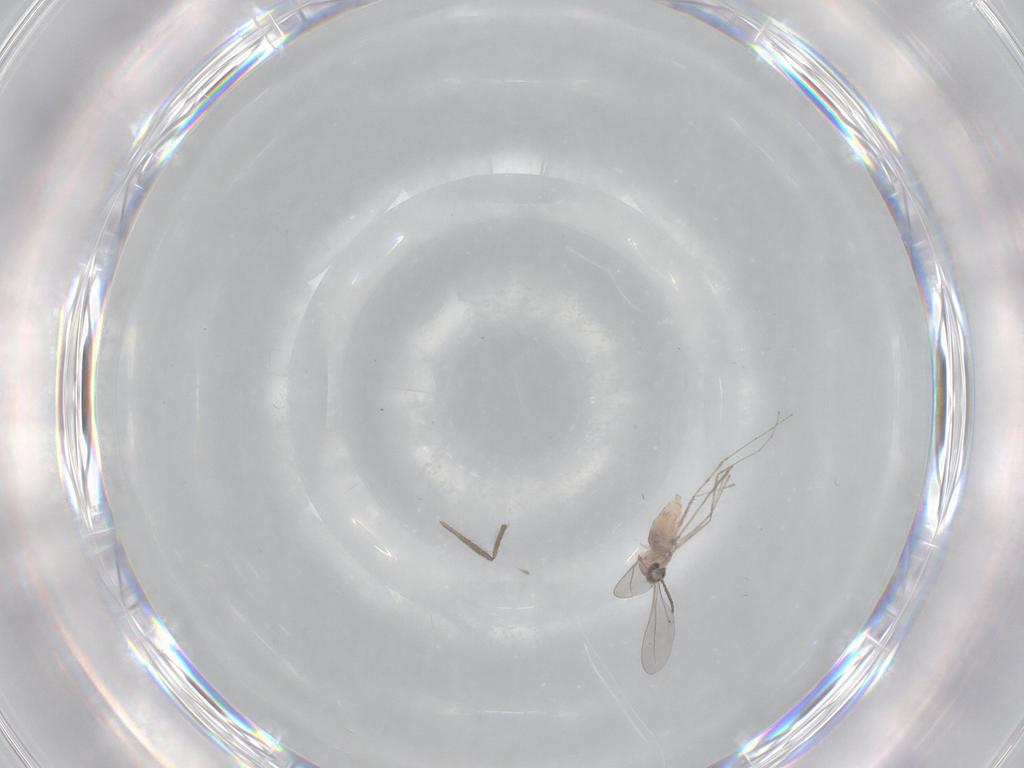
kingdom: Animalia
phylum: Arthropoda
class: Insecta
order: Diptera
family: Chironomidae
